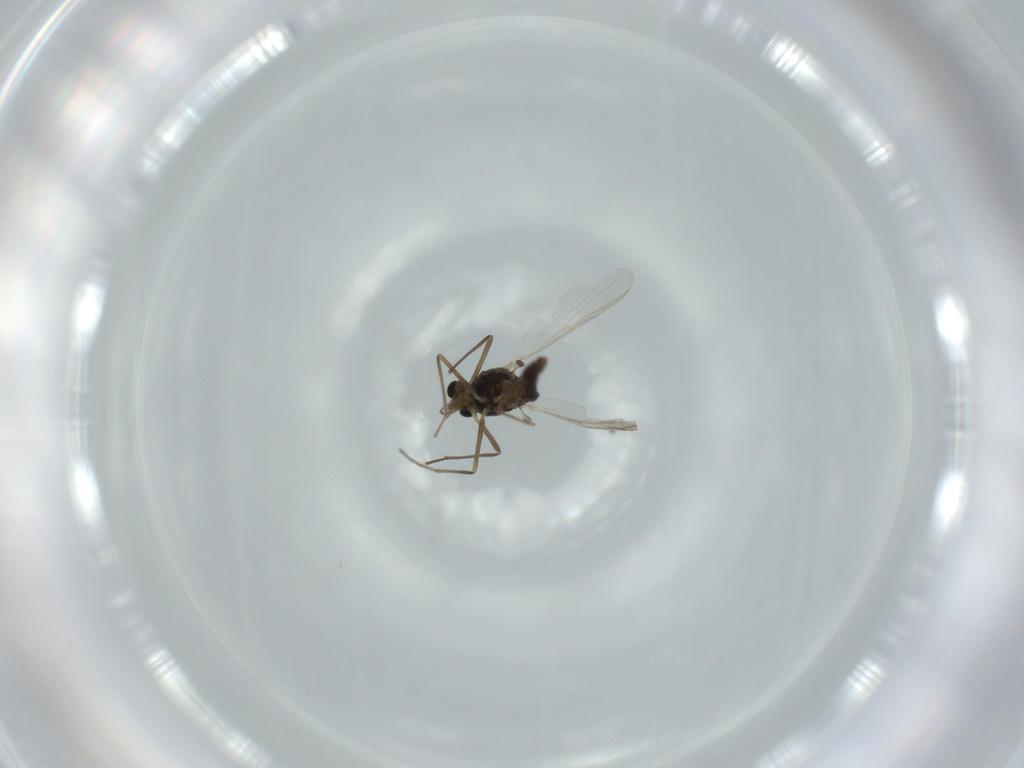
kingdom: Animalia
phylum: Arthropoda
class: Insecta
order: Diptera
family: Chironomidae
